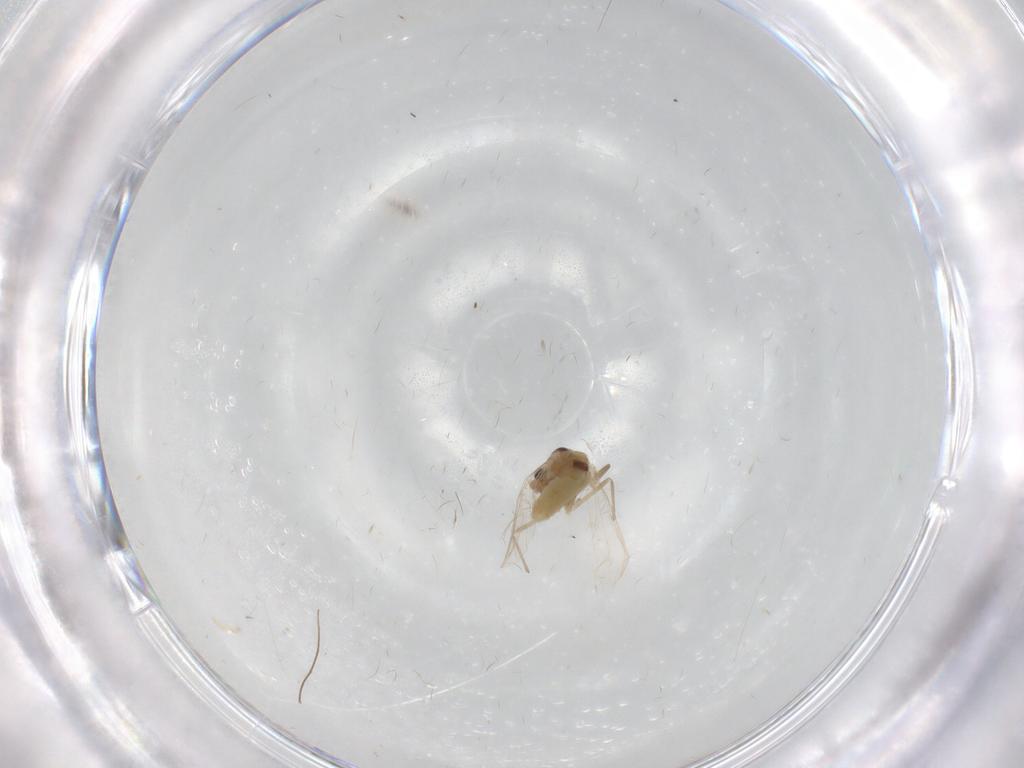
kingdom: Animalia
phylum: Arthropoda
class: Insecta
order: Diptera
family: Chironomidae
